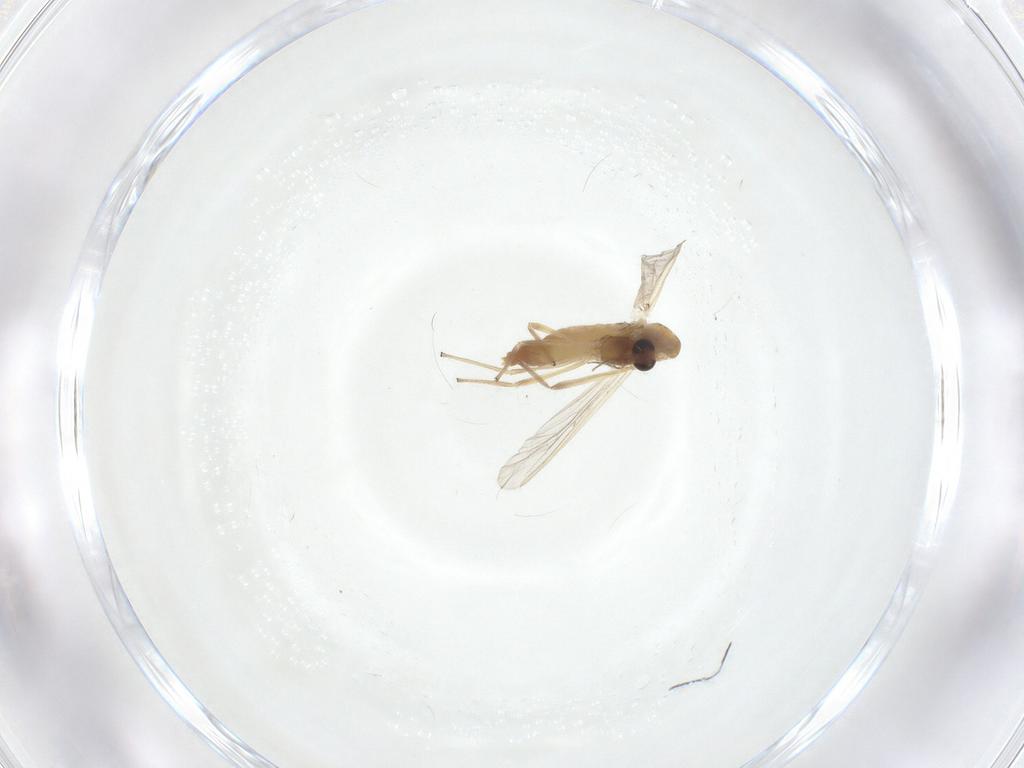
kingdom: Animalia
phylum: Arthropoda
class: Insecta
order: Diptera
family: Chironomidae
